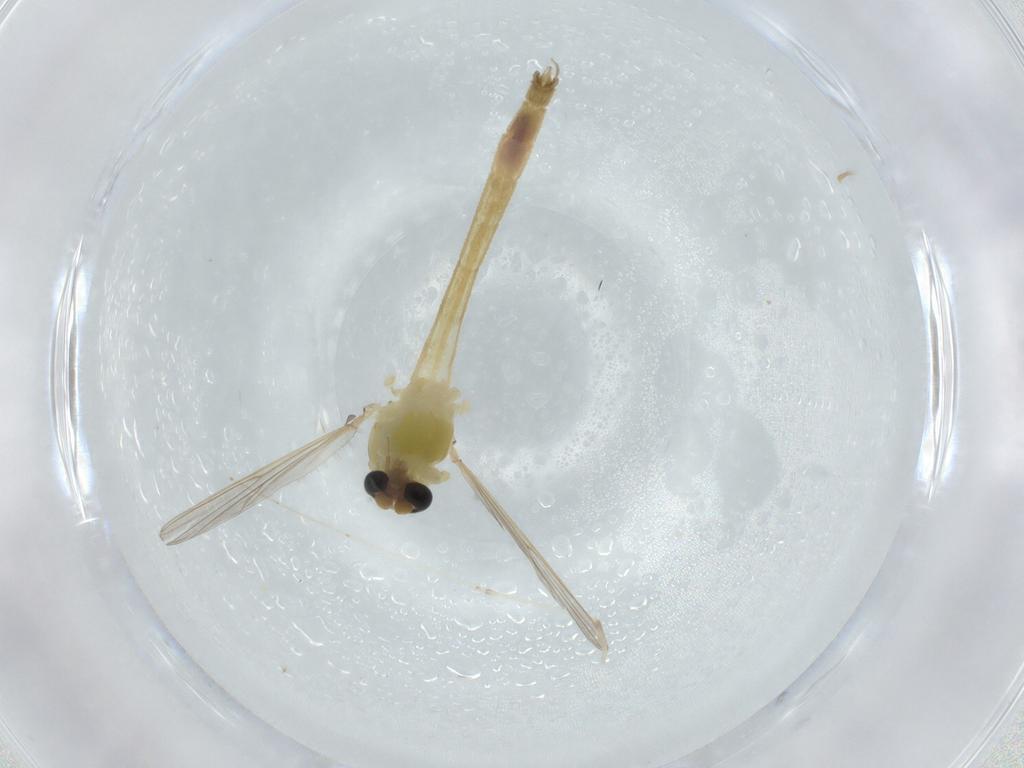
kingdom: Animalia
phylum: Arthropoda
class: Insecta
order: Diptera
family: Cecidomyiidae
